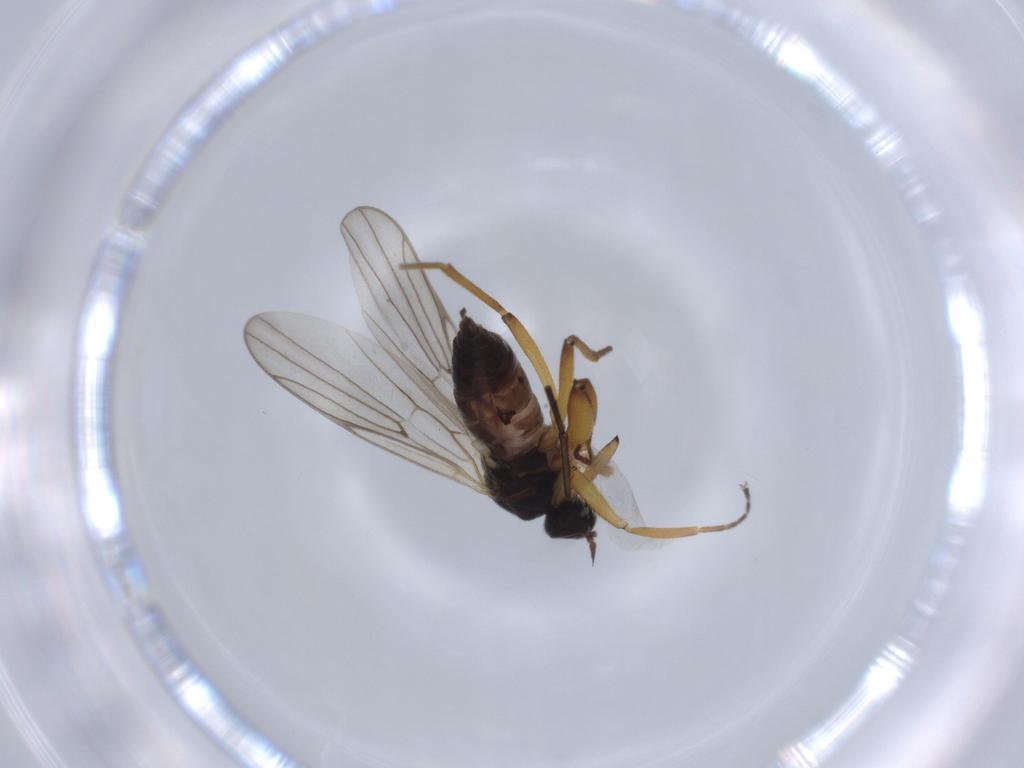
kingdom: Animalia
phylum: Arthropoda
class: Insecta
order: Diptera
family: Hybotidae
